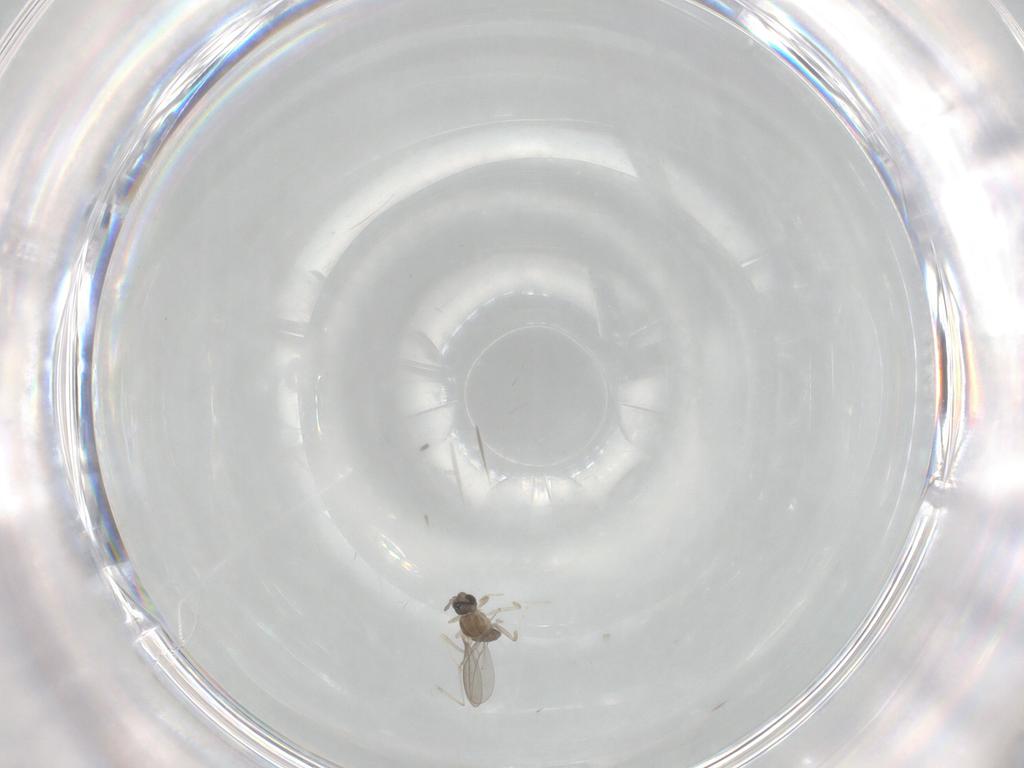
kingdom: Animalia
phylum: Arthropoda
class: Insecta
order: Diptera
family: Cecidomyiidae
